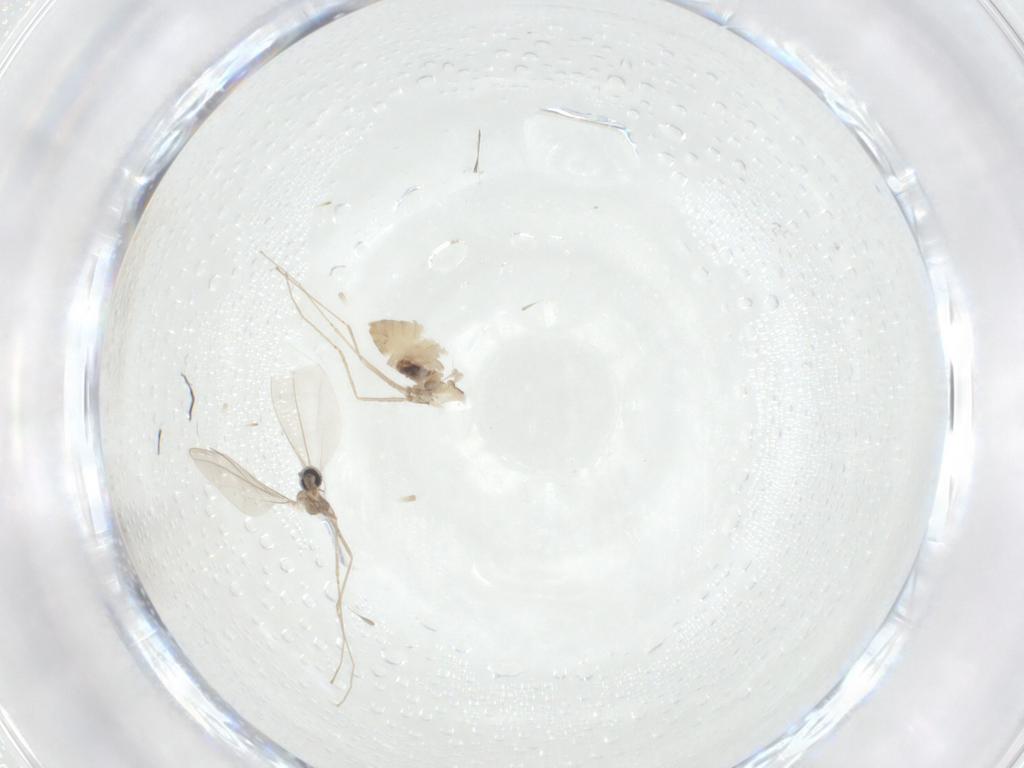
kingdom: Animalia
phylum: Arthropoda
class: Insecta
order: Diptera
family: Cecidomyiidae
